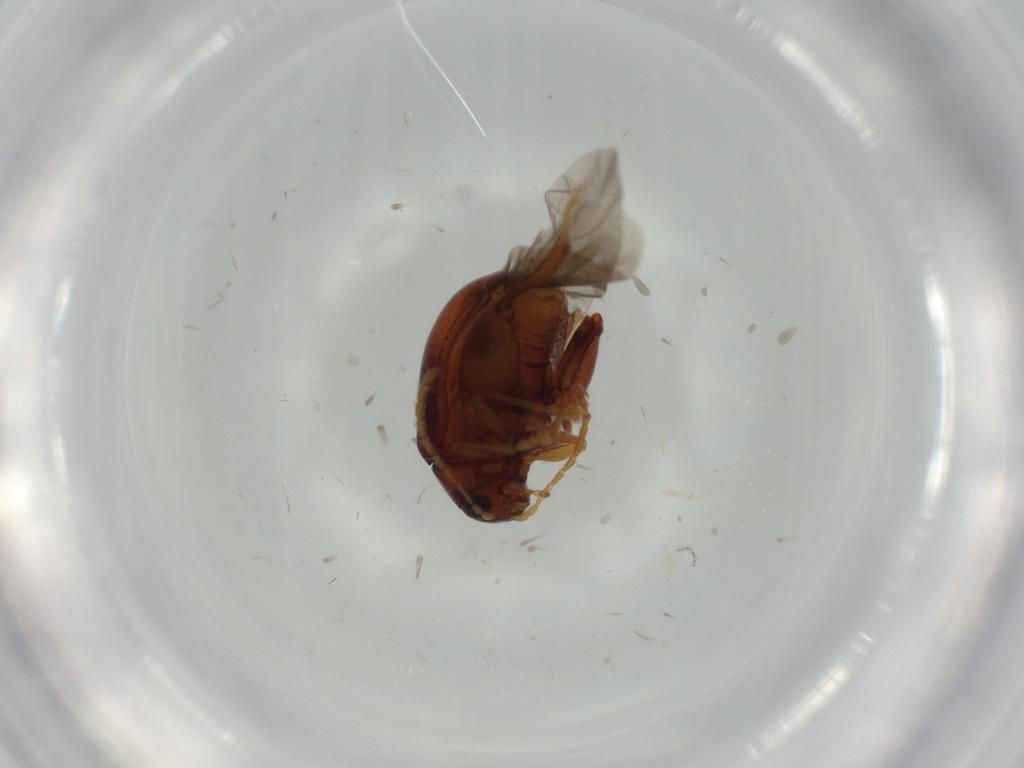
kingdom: Animalia
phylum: Arthropoda
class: Insecta
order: Coleoptera
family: Chrysomelidae
